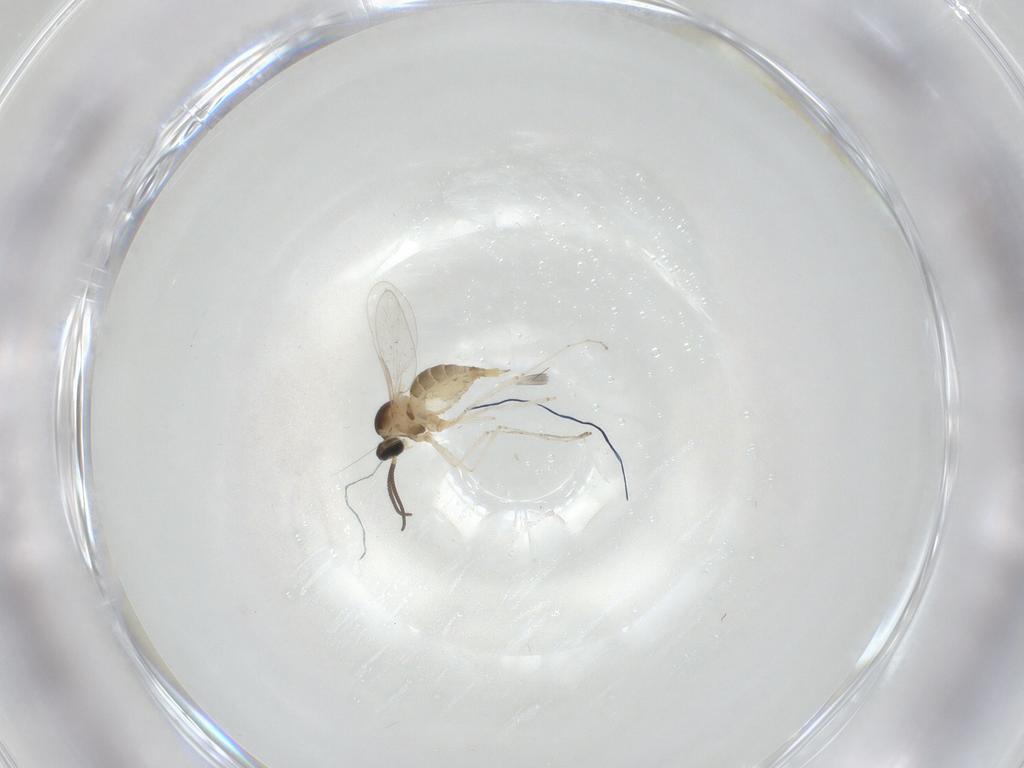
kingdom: Animalia
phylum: Arthropoda
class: Insecta
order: Diptera
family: Cecidomyiidae
